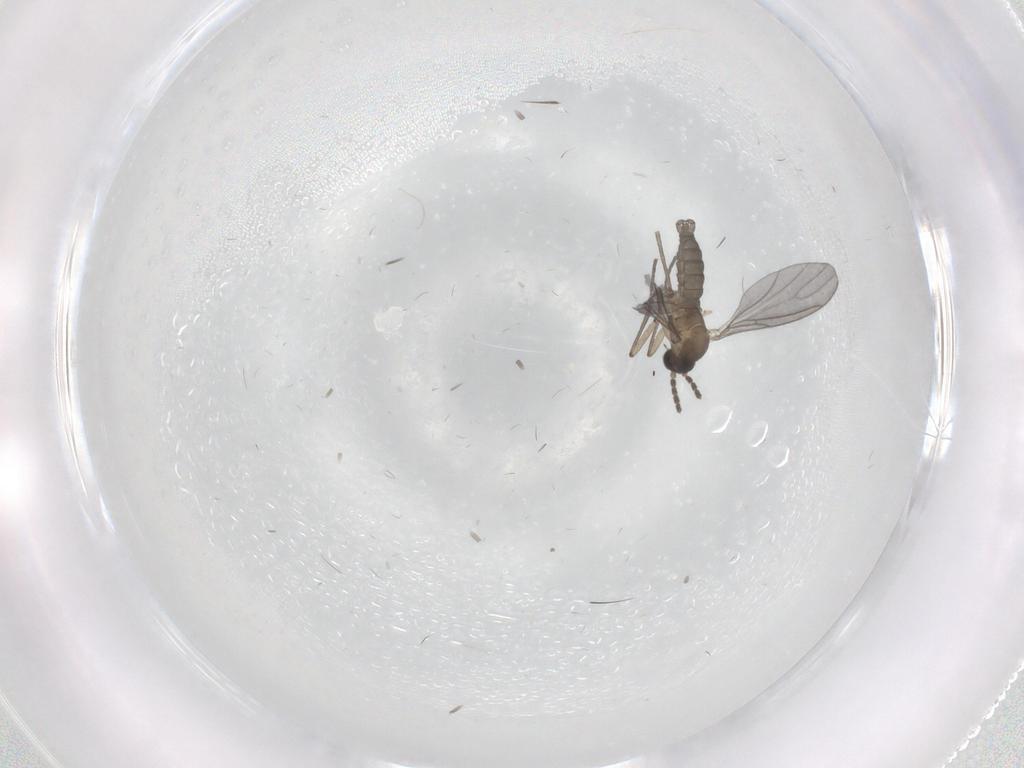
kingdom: Animalia
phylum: Arthropoda
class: Insecta
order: Diptera
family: Sciaridae
